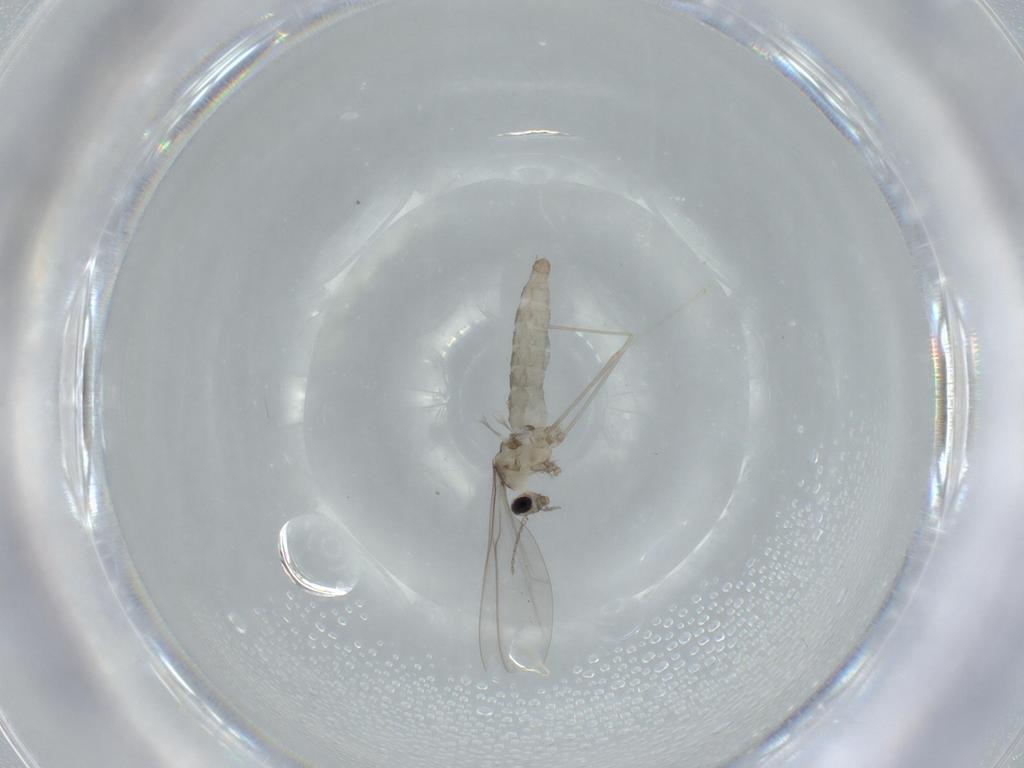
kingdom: Animalia
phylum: Arthropoda
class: Insecta
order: Diptera
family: Cecidomyiidae
